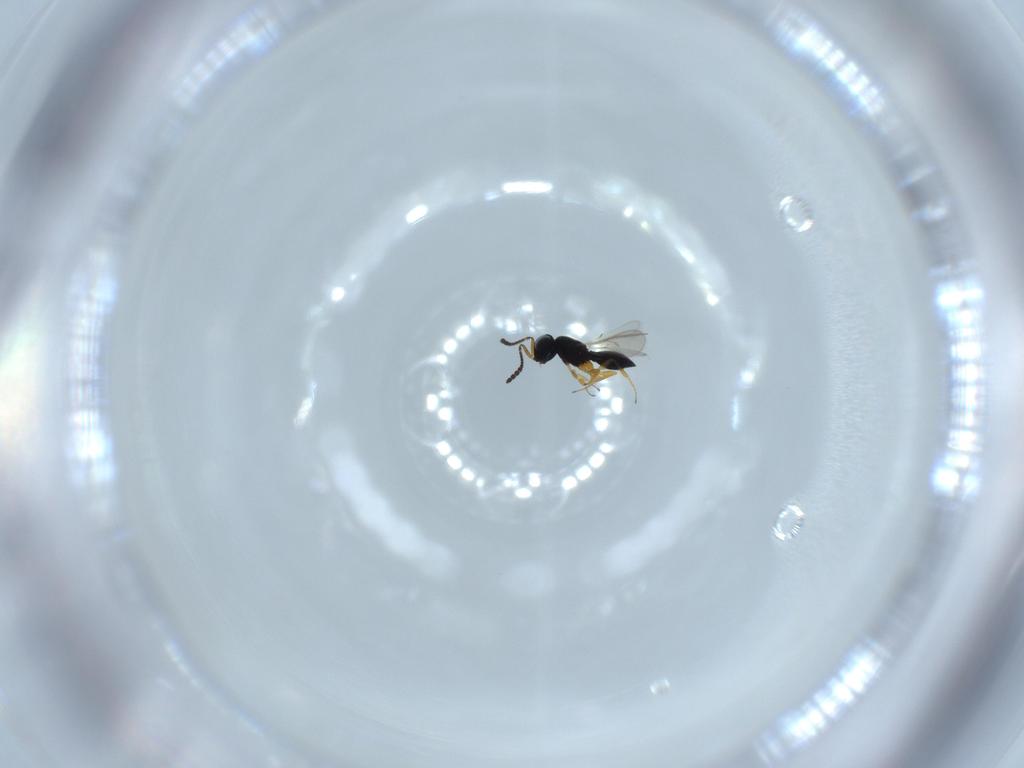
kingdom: Animalia
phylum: Arthropoda
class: Insecta
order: Hymenoptera
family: Scelionidae
